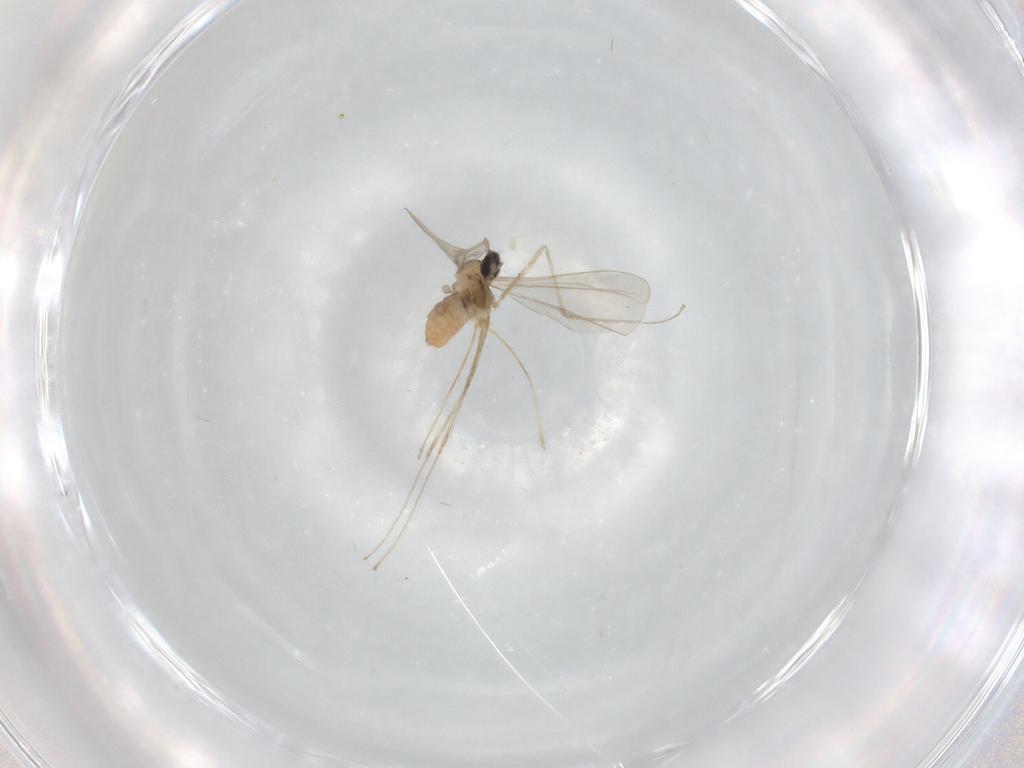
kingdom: Animalia
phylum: Arthropoda
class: Insecta
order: Diptera
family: Hybotidae
